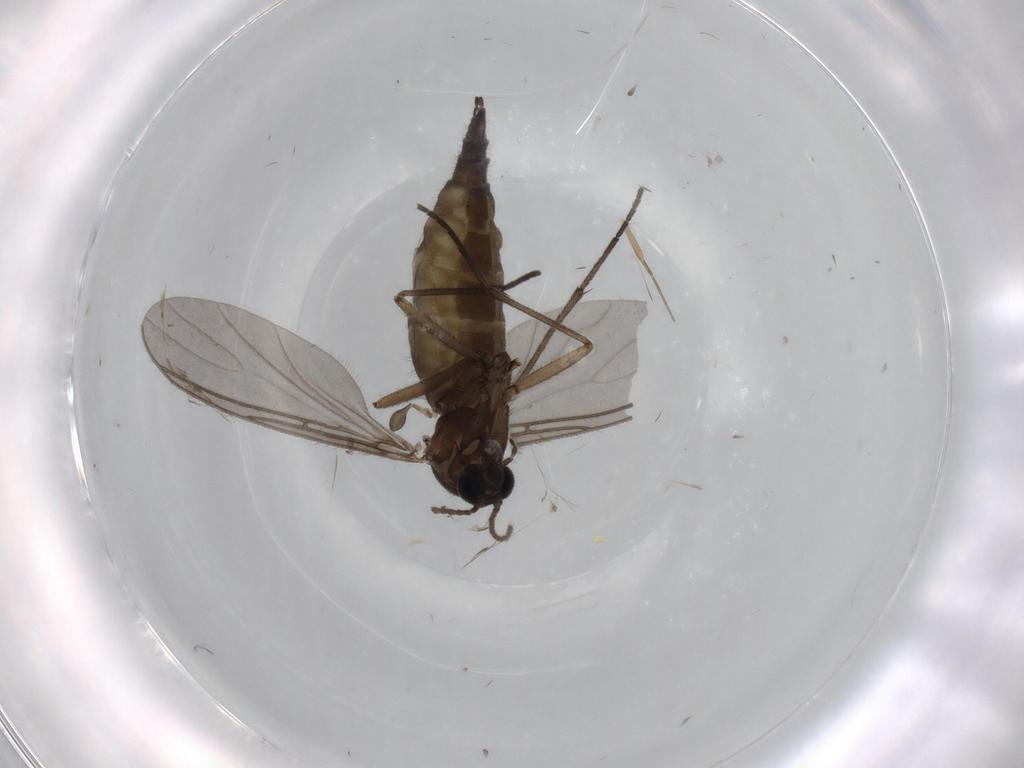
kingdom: Animalia
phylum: Arthropoda
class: Insecta
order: Diptera
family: Sciaridae
